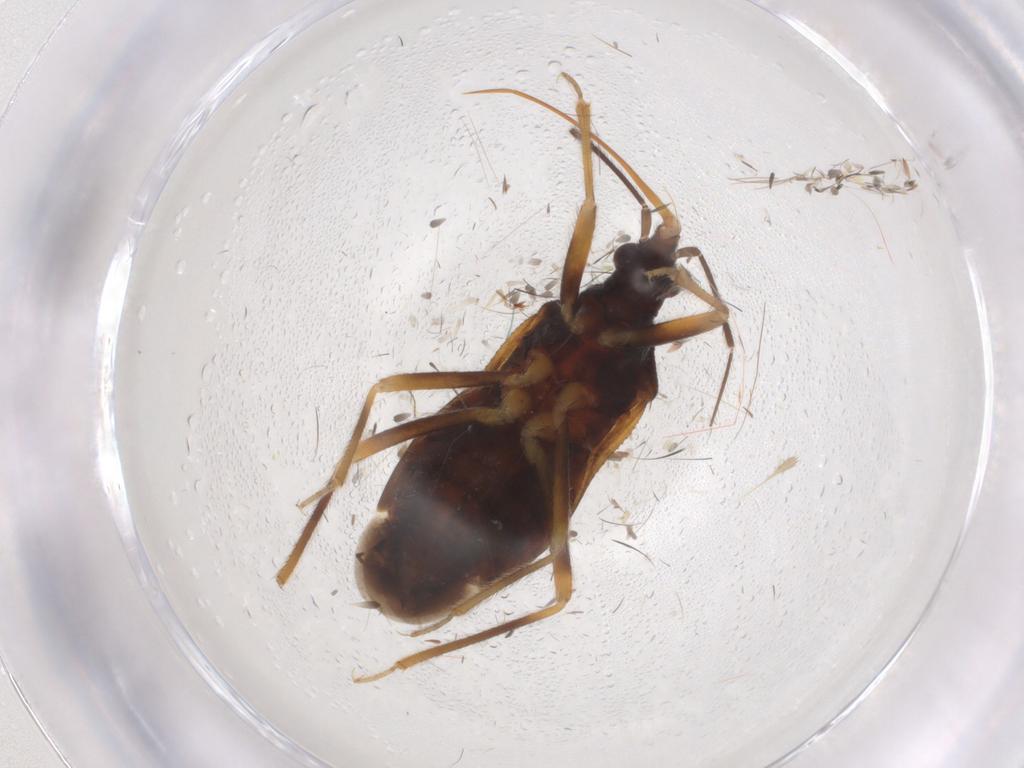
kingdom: Animalia
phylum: Arthropoda
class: Insecta
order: Hemiptera
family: Anthocoridae
